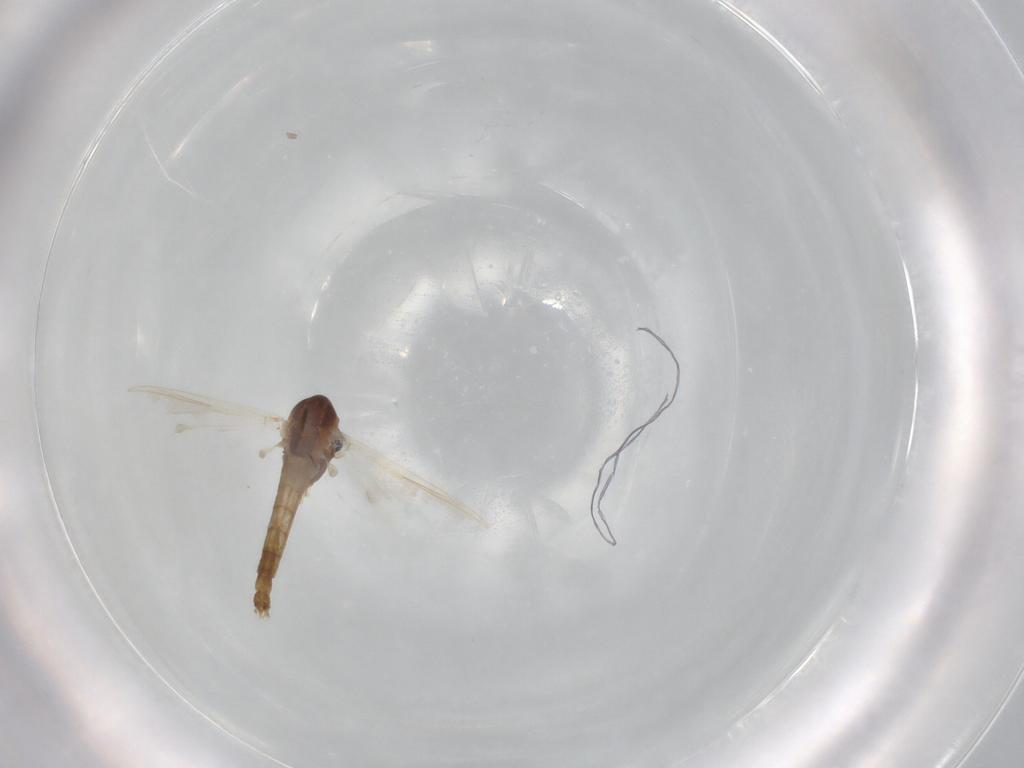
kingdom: Animalia
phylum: Arthropoda
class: Insecta
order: Diptera
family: Chironomidae
